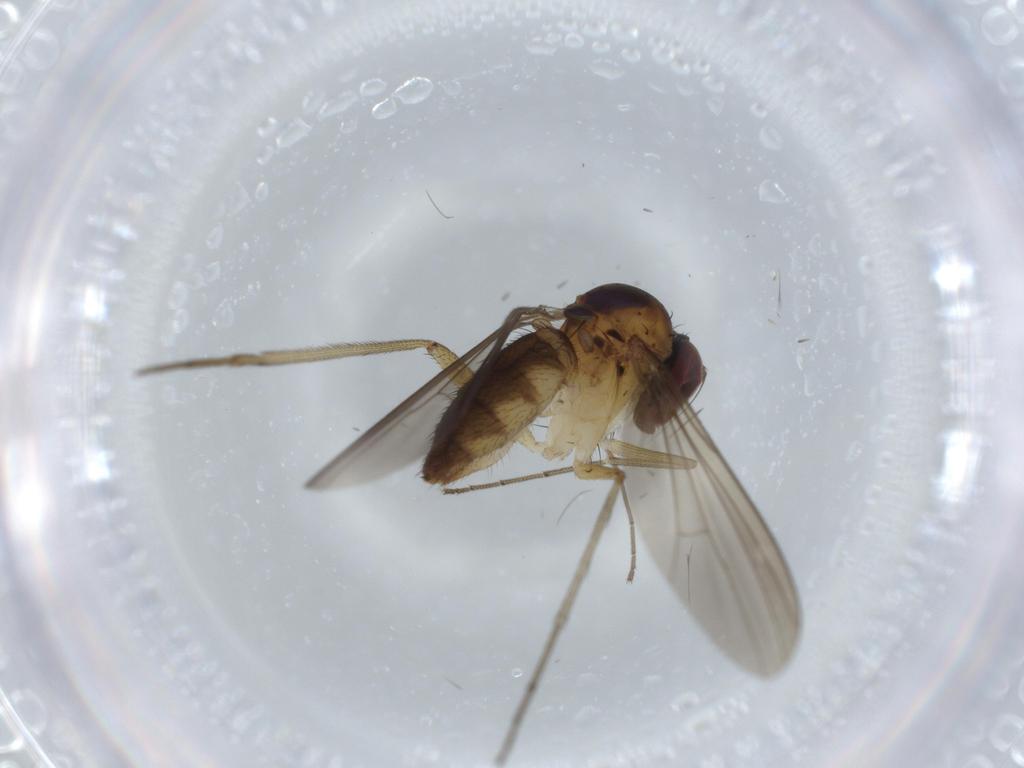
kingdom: Animalia
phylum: Arthropoda
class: Insecta
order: Diptera
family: Dolichopodidae
